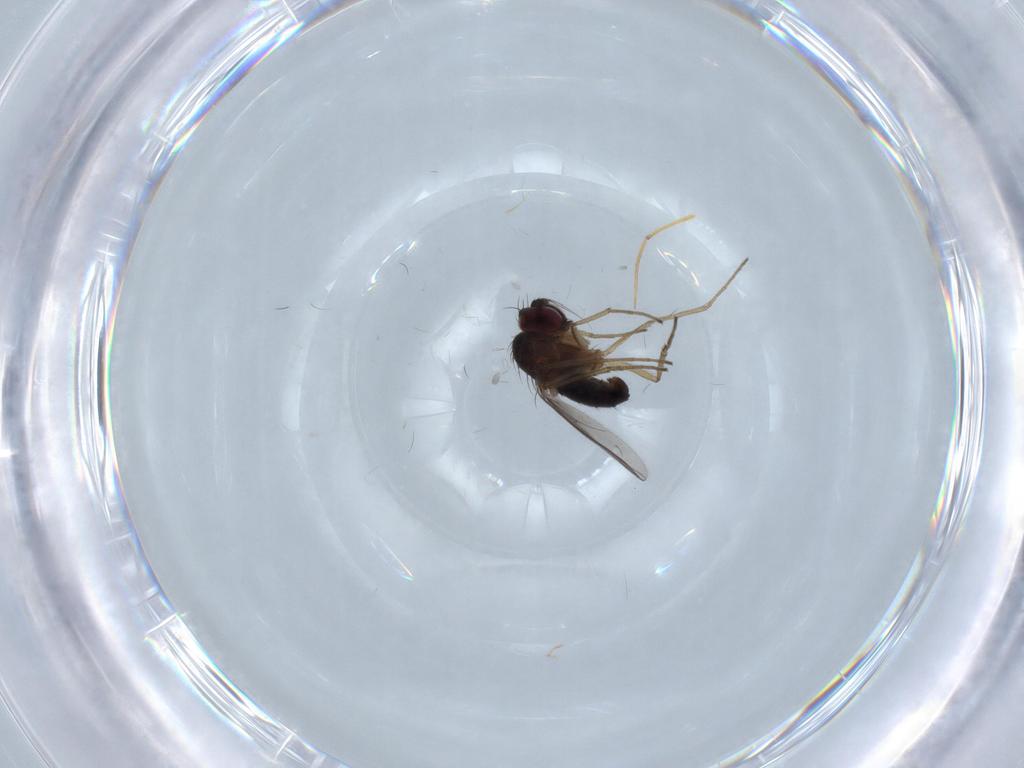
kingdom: Animalia
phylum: Arthropoda
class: Insecta
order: Diptera
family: Dolichopodidae
